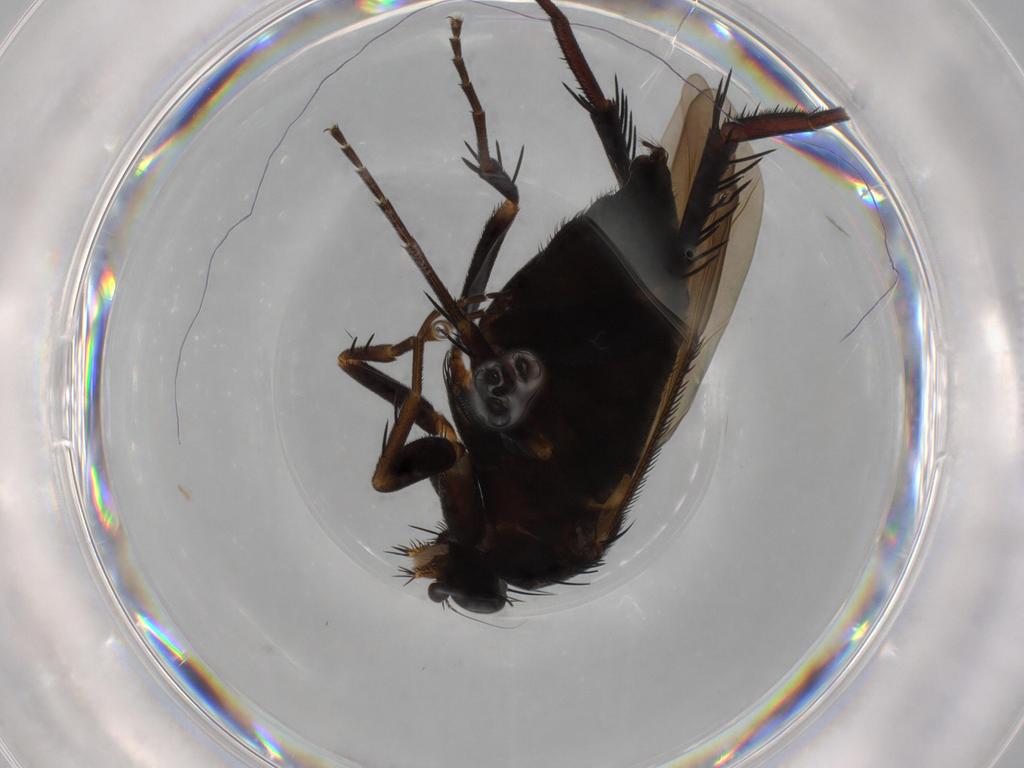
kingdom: Animalia
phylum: Arthropoda
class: Insecta
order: Diptera
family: Phoridae
